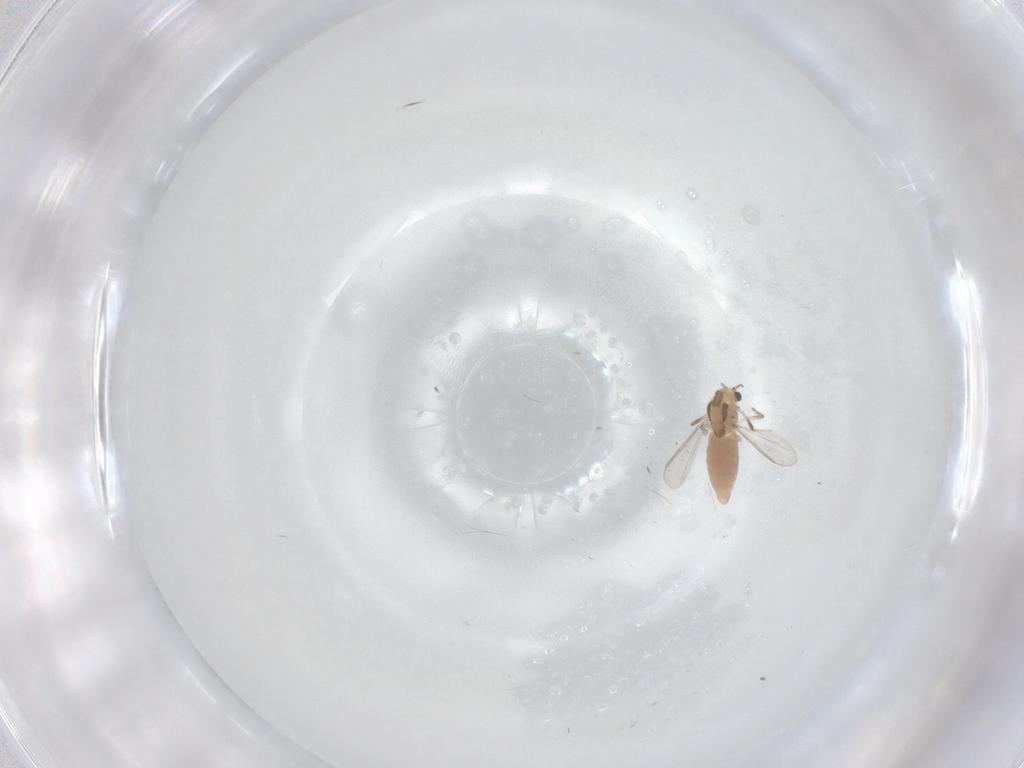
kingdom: Animalia
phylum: Arthropoda
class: Insecta
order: Diptera
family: Chironomidae
